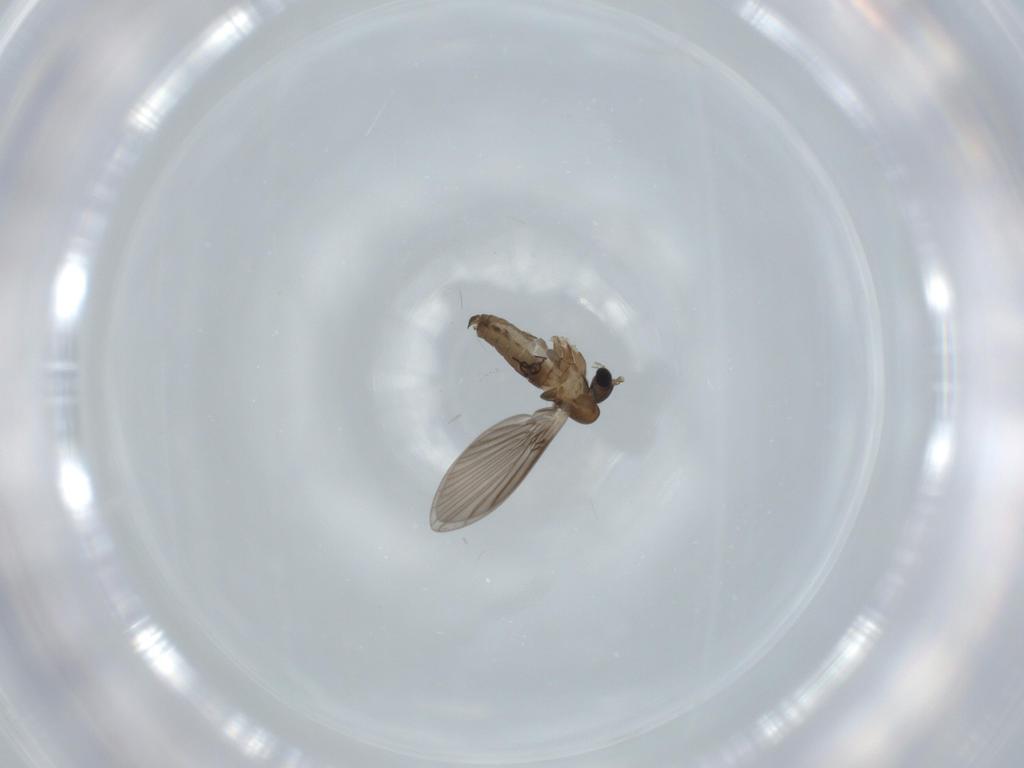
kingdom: Animalia
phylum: Arthropoda
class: Insecta
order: Diptera
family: Psychodidae
